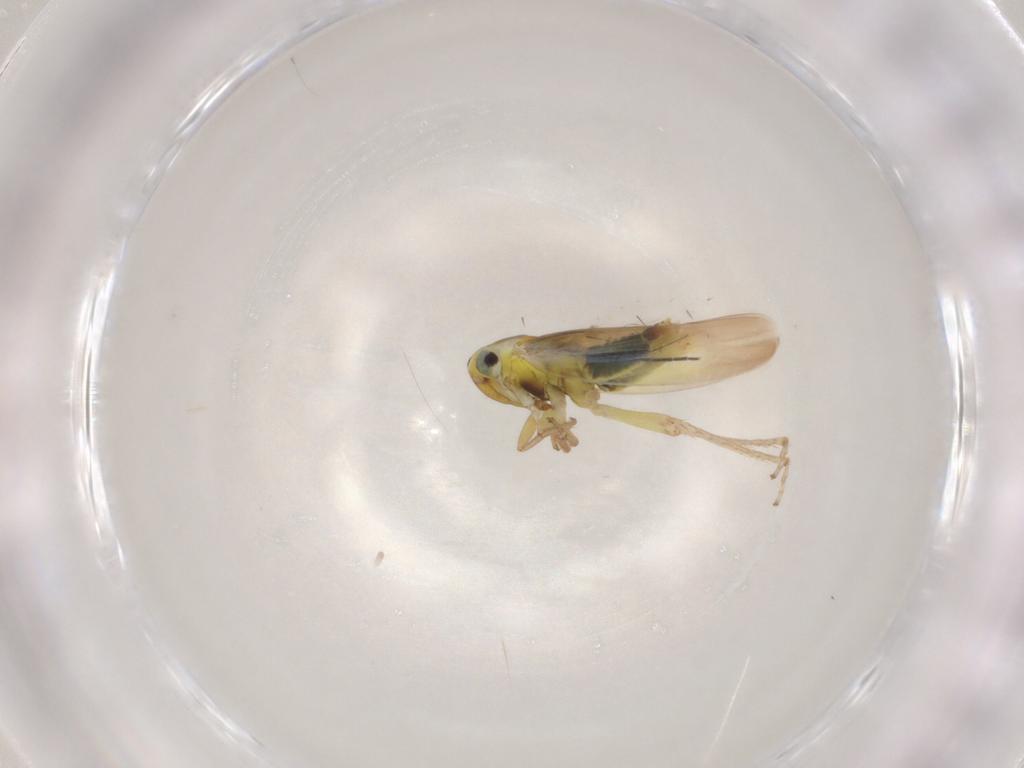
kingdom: Animalia
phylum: Arthropoda
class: Insecta
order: Hemiptera
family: Cicadellidae
